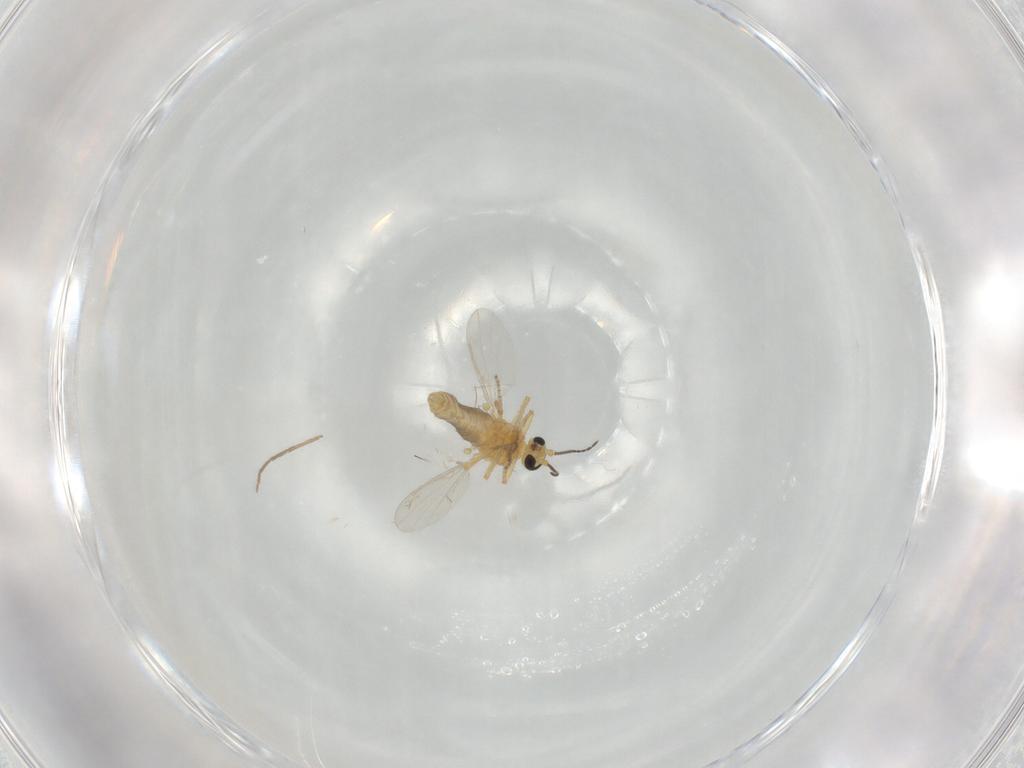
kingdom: Animalia
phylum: Arthropoda
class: Insecta
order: Diptera
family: Ceratopogonidae
